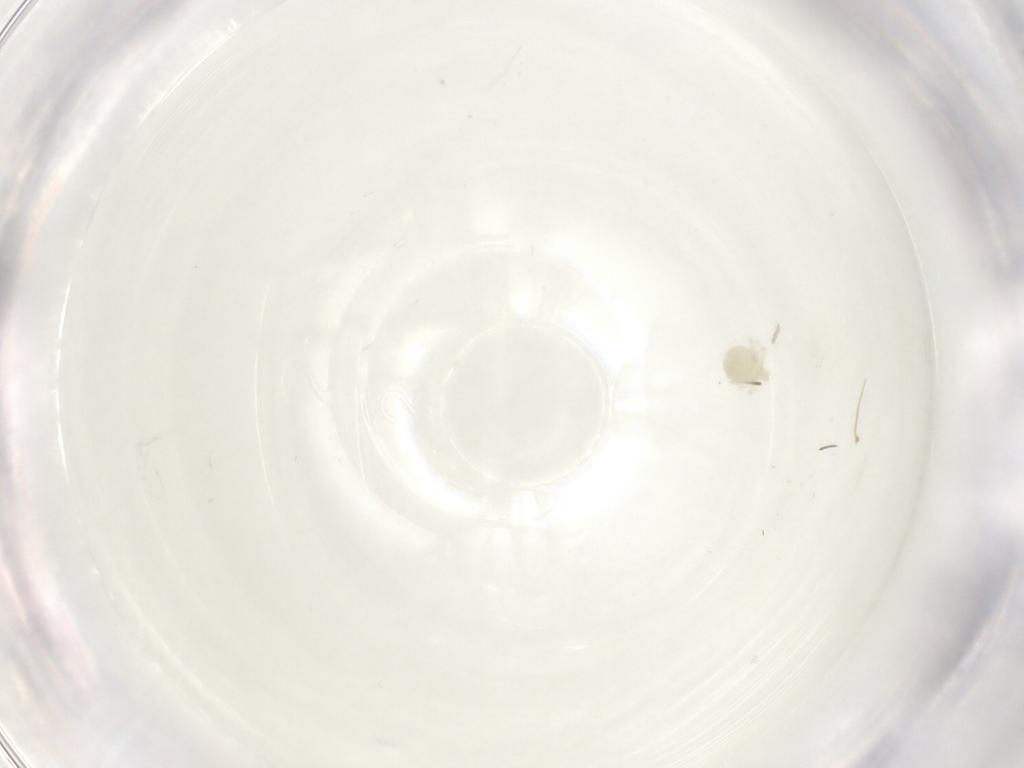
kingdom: Animalia
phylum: Arthropoda
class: Arachnida
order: Trombidiformes
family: Anystidae
